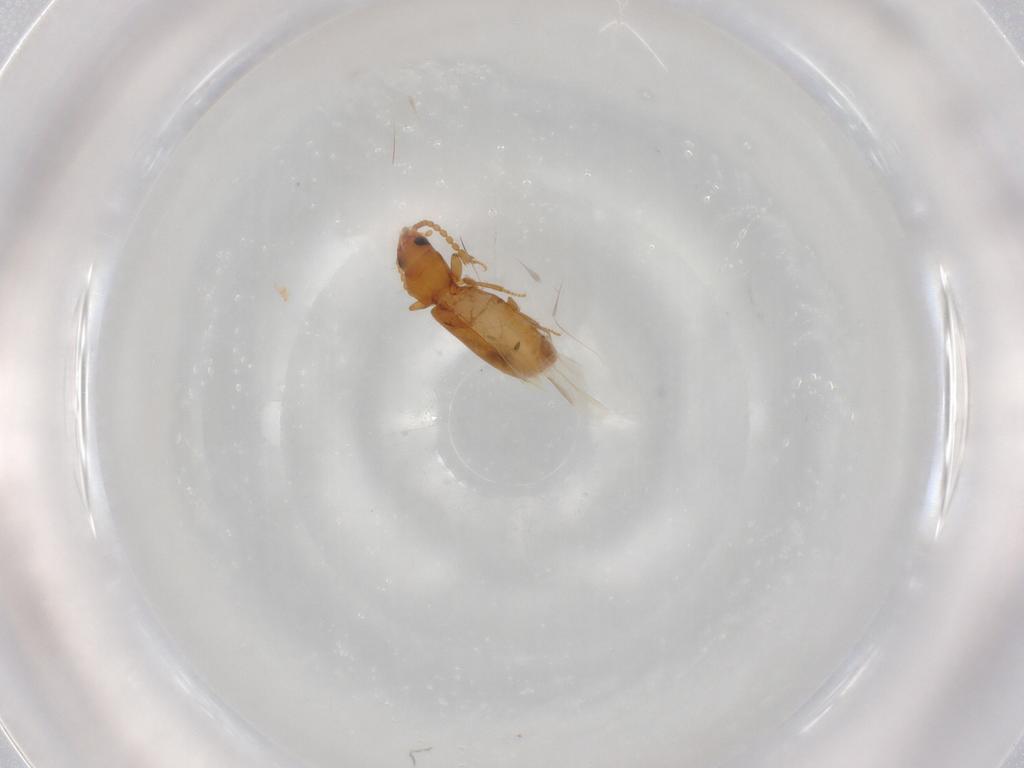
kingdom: Animalia
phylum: Arthropoda
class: Insecta
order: Coleoptera
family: Carabidae
